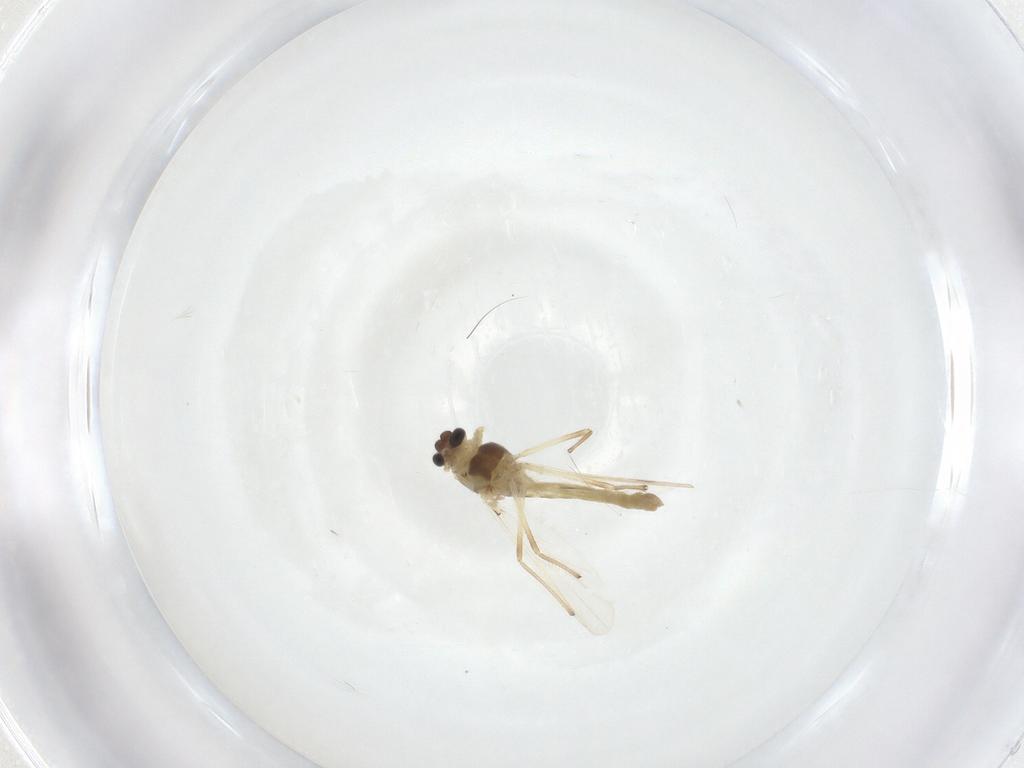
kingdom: Animalia
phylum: Arthropoda
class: Insecta
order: Diptera
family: Chironomidae
